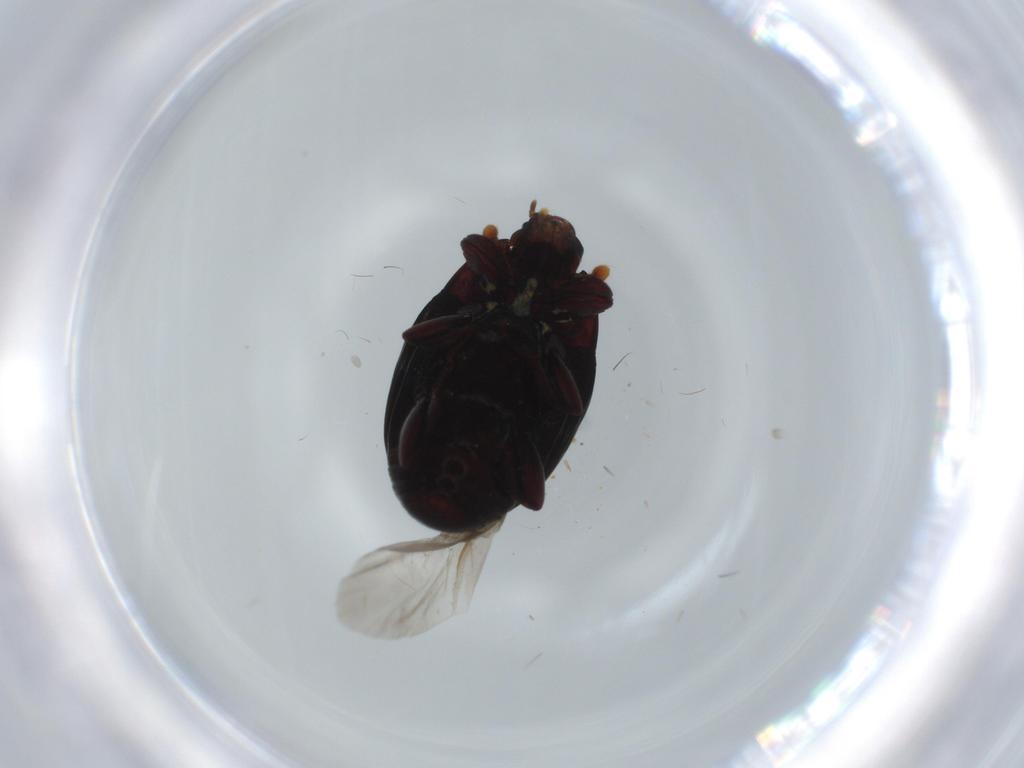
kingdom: Animalia
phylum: Arthropoda
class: Insecta
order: Coleoptera
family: Histeridae
